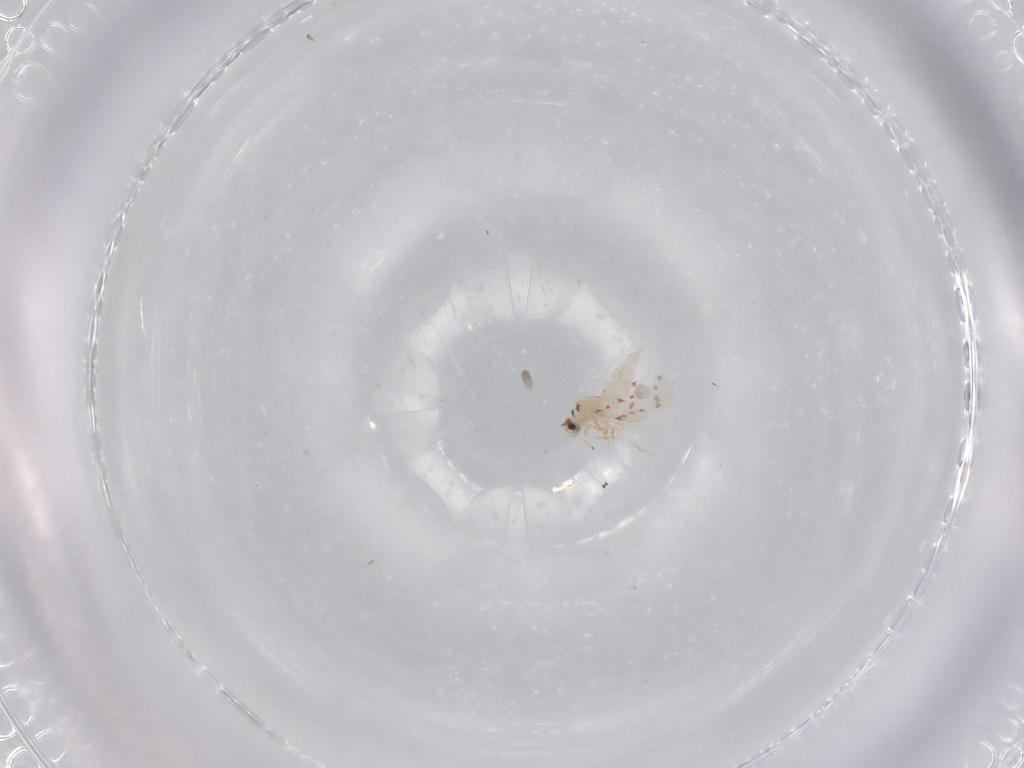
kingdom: Animalia
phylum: Arthropoda
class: Insecta
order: Hemiptera
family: Aleyrodidae
